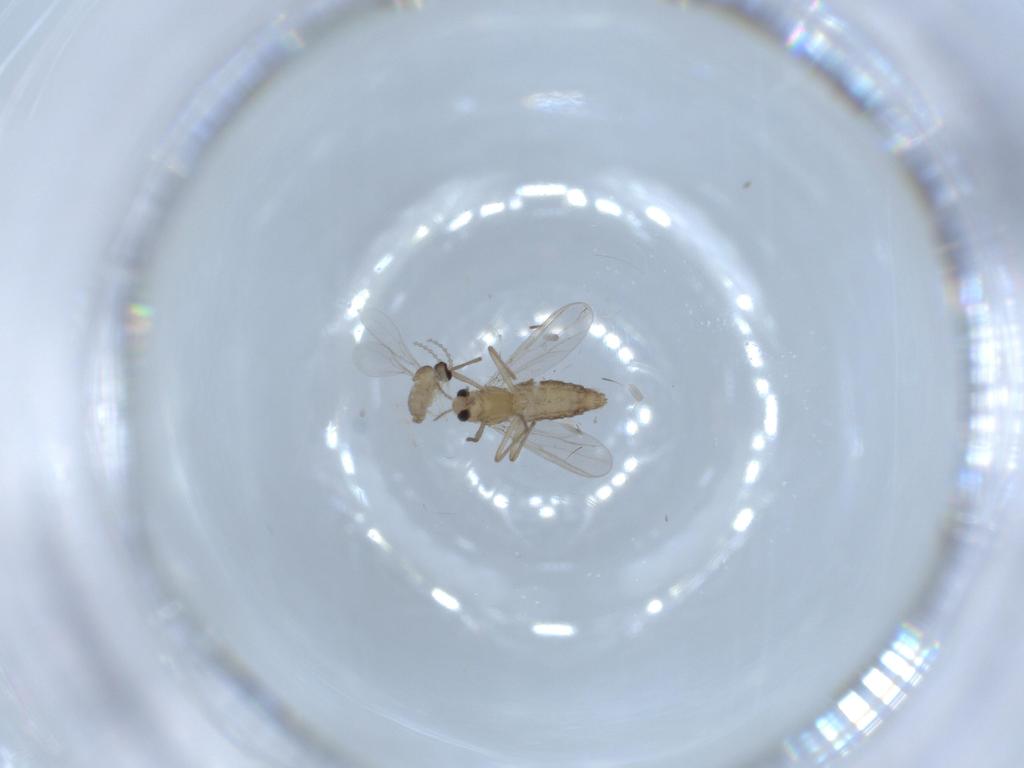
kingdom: Animalia
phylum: Arthropoda
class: Insecta
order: Diptera
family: Chironomidae
